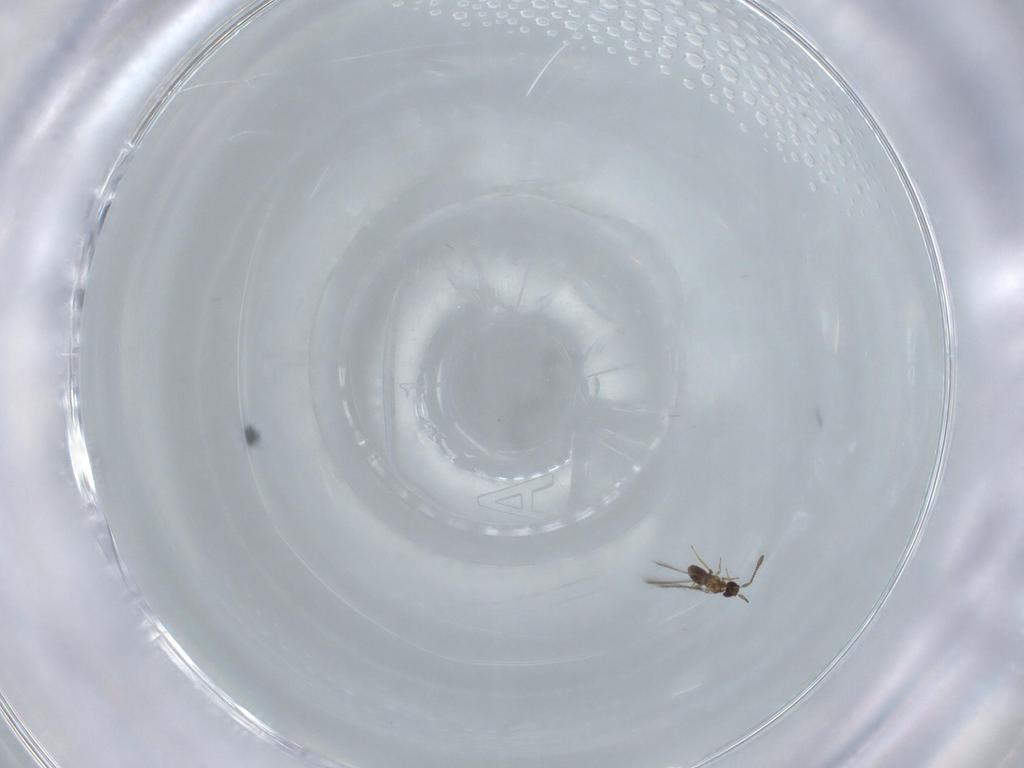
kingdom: Animalia
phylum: Arthropoda
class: Insecta
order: Hymenoptera
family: Mymaridae
